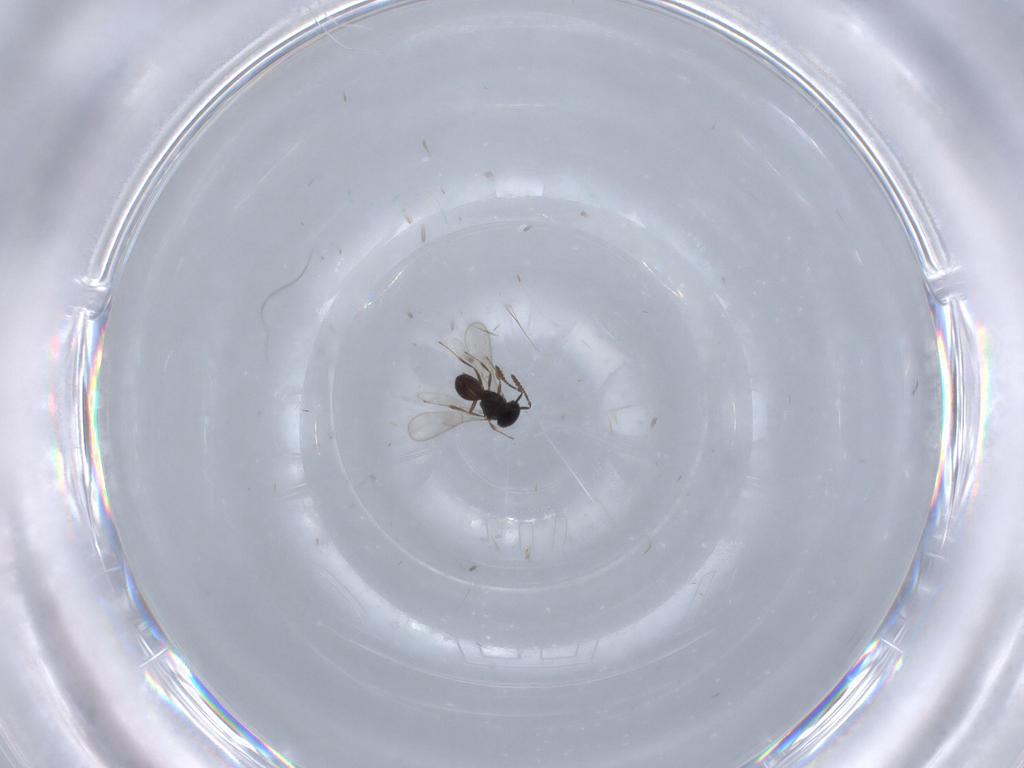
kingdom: Animalia
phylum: Arthropoda
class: Insecta
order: Hymenoptera
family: Scelionidae
